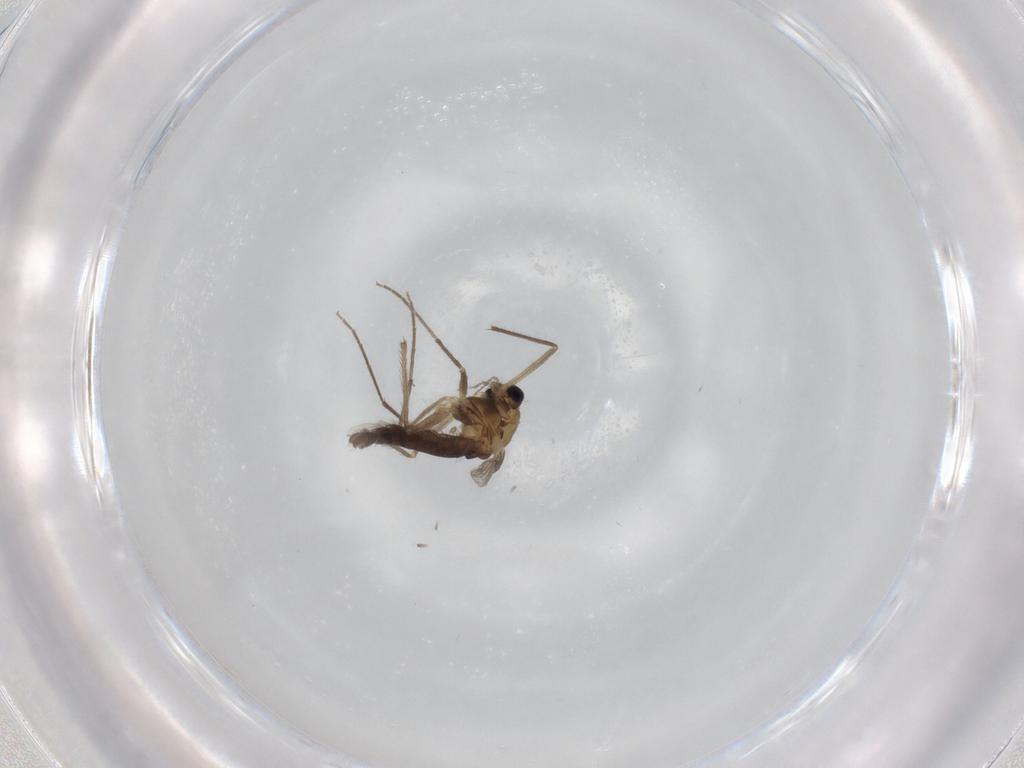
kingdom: Animalia
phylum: Arthropoda
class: Insecta
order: Diptera
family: Chironomidae
